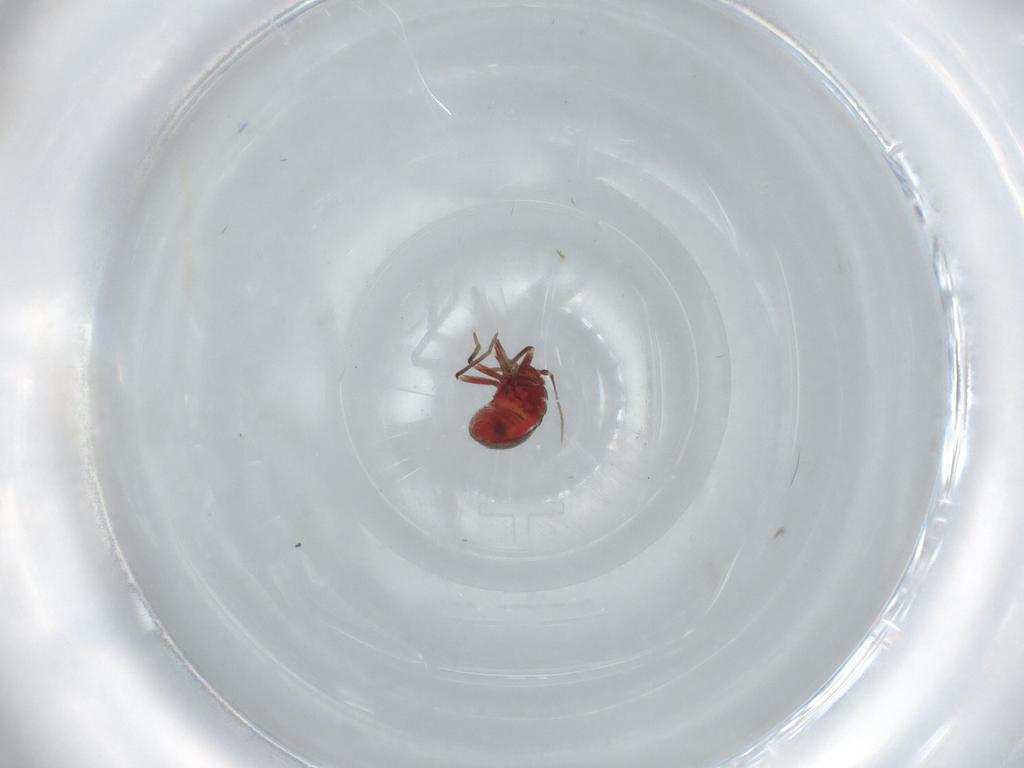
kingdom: Animalia
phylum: Arthropoda
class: Insecta
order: Hemiptera
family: Schizopteridae
